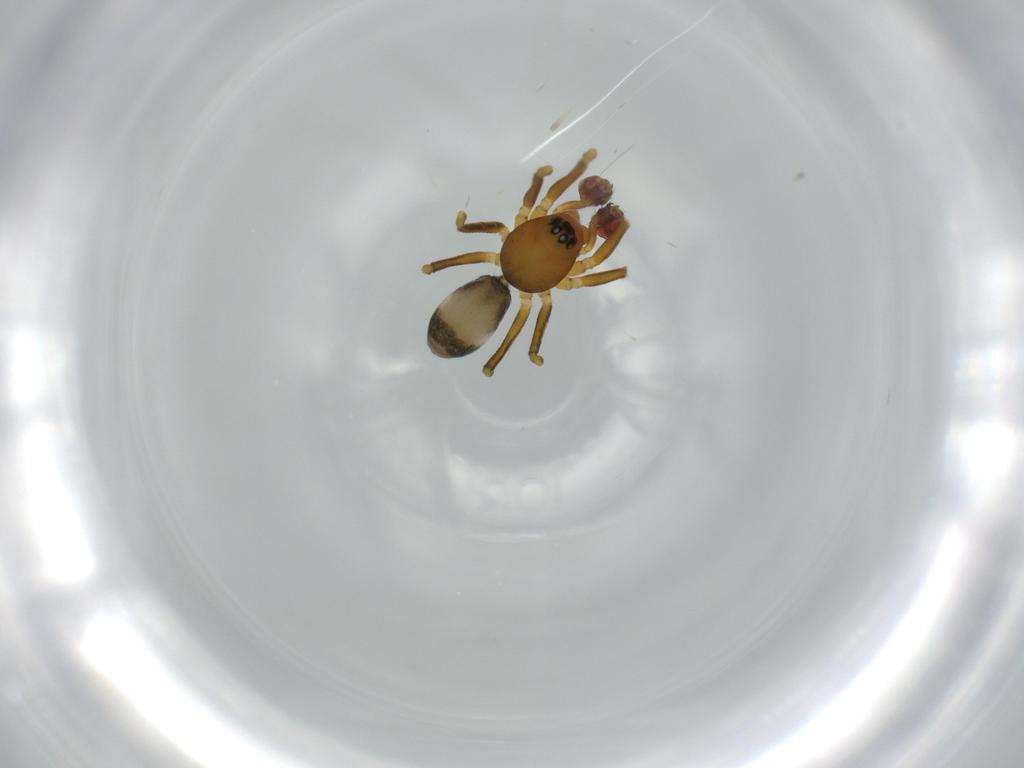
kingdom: Animalia
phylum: Arthropoda
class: Arachnida
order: Araneae
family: Linyphiidae
